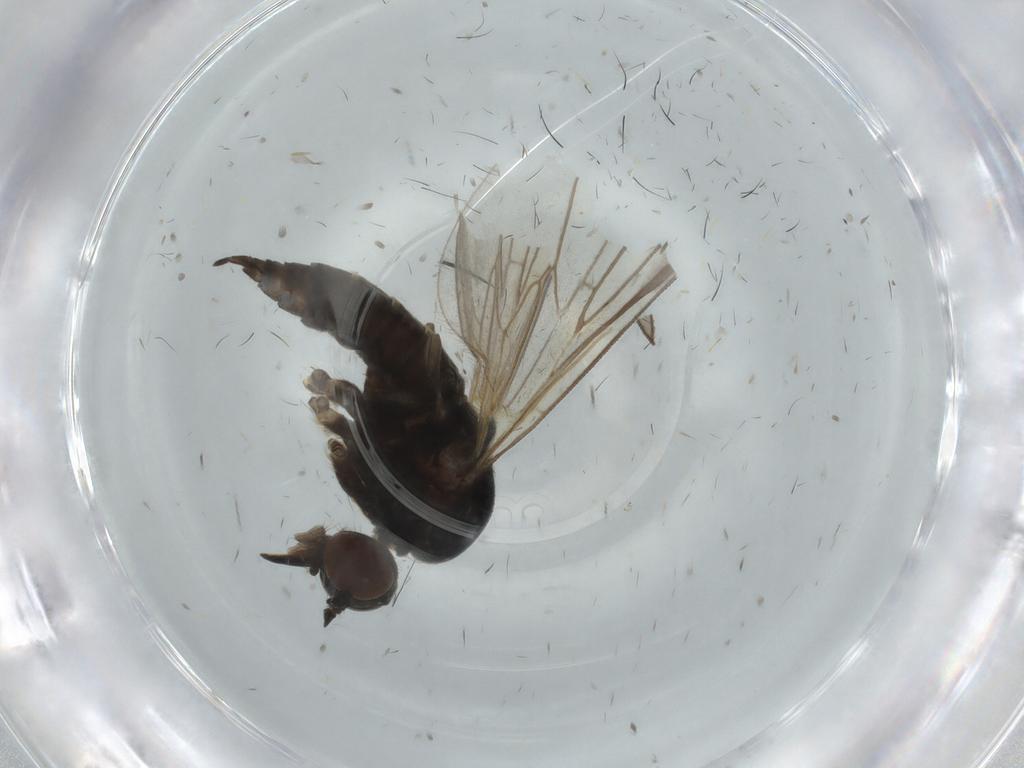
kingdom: Animalia
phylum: Arthropoda
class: Insecta
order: Diptera
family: Empididae
